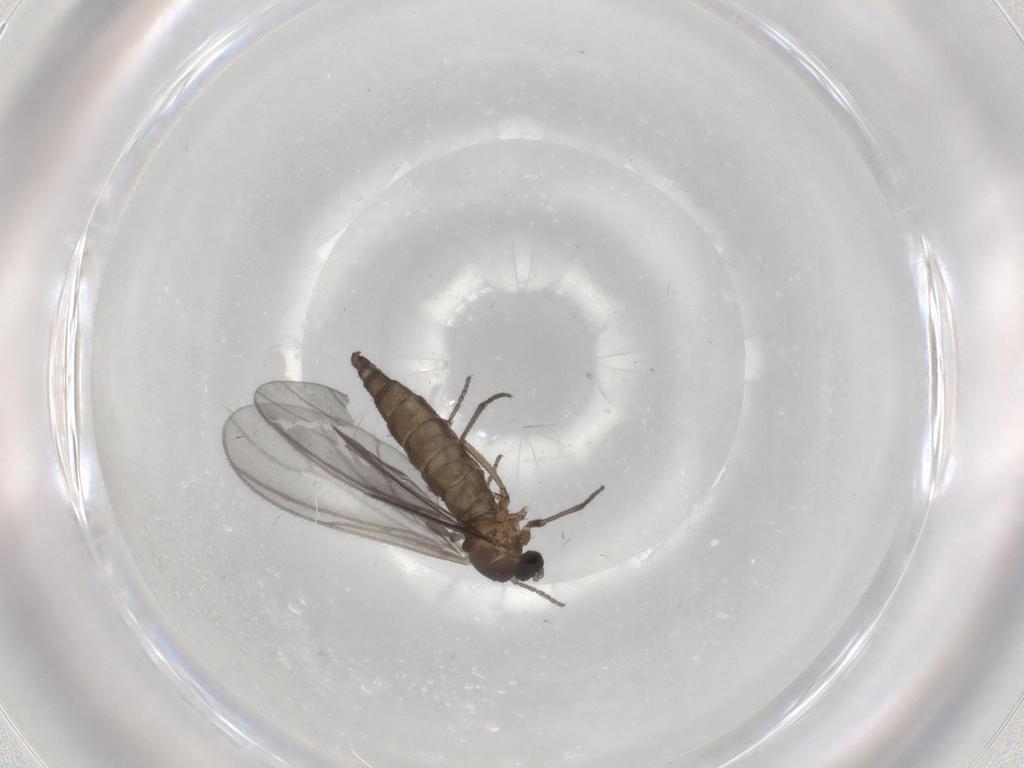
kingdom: Animalia
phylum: Arthropoda
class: Insecta
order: Diptera
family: Sciaridae
